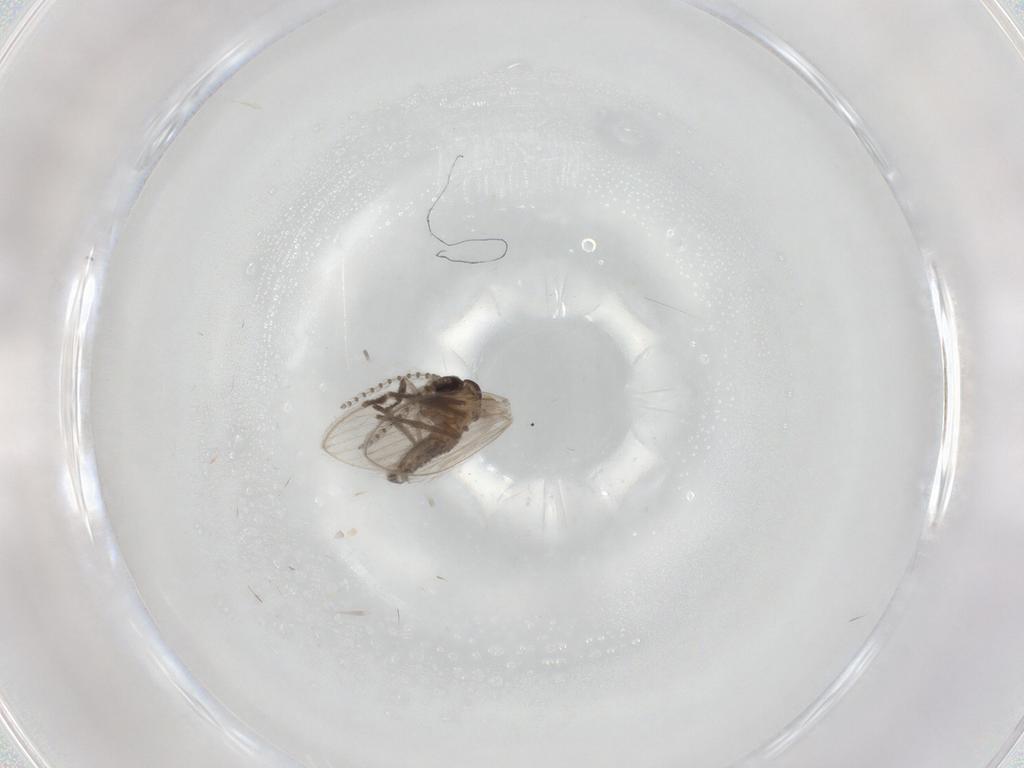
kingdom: Animalia
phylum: Arthropoda
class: Insecta
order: Diptera
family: Psychodidae
